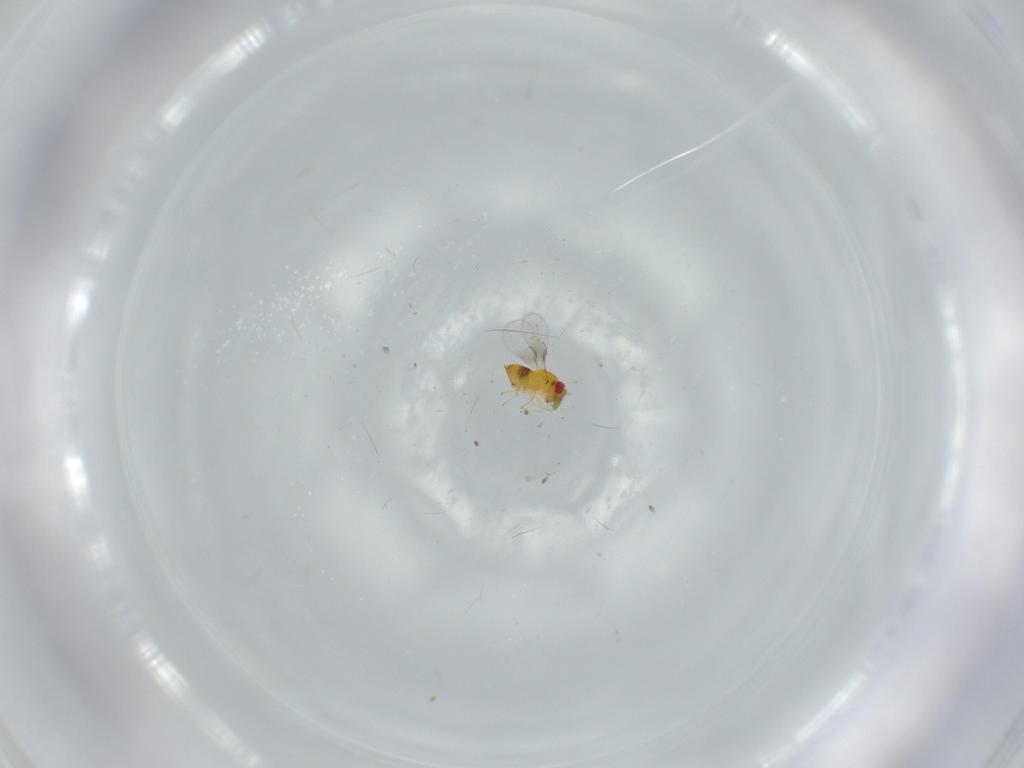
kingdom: Animalia
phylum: Arthropoda
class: Insecta
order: Hymenoptera
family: Trichogrammatidae
